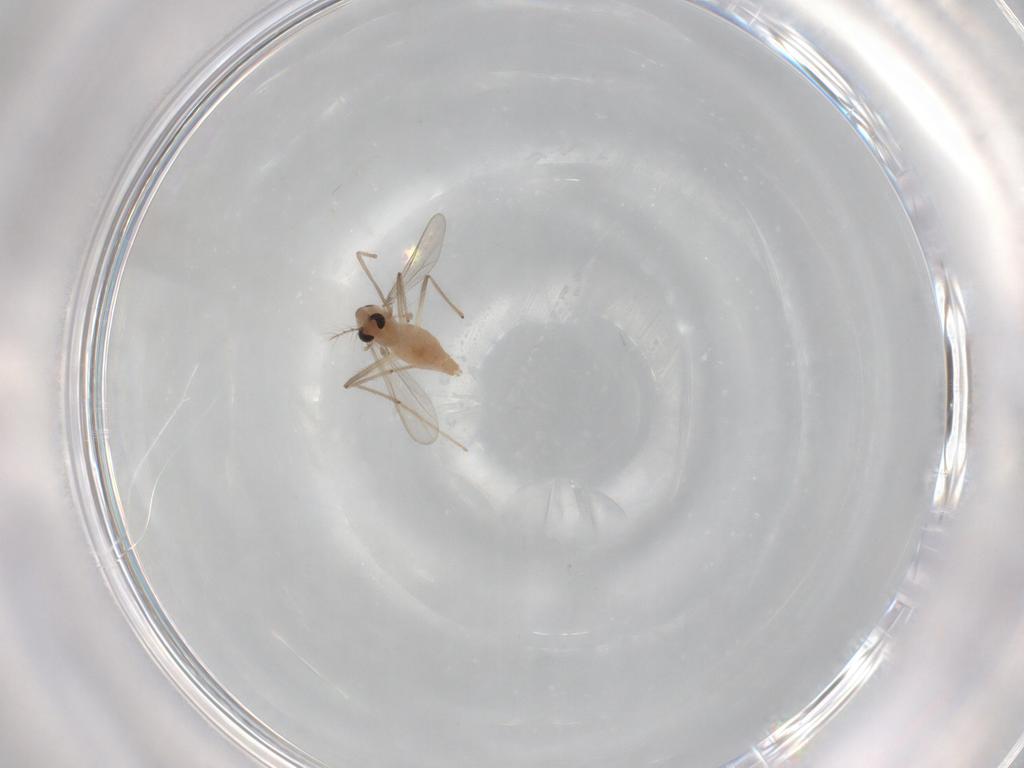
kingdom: Animalia
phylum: Arthropoda
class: Insecta
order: Diptera
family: Chironomidae
